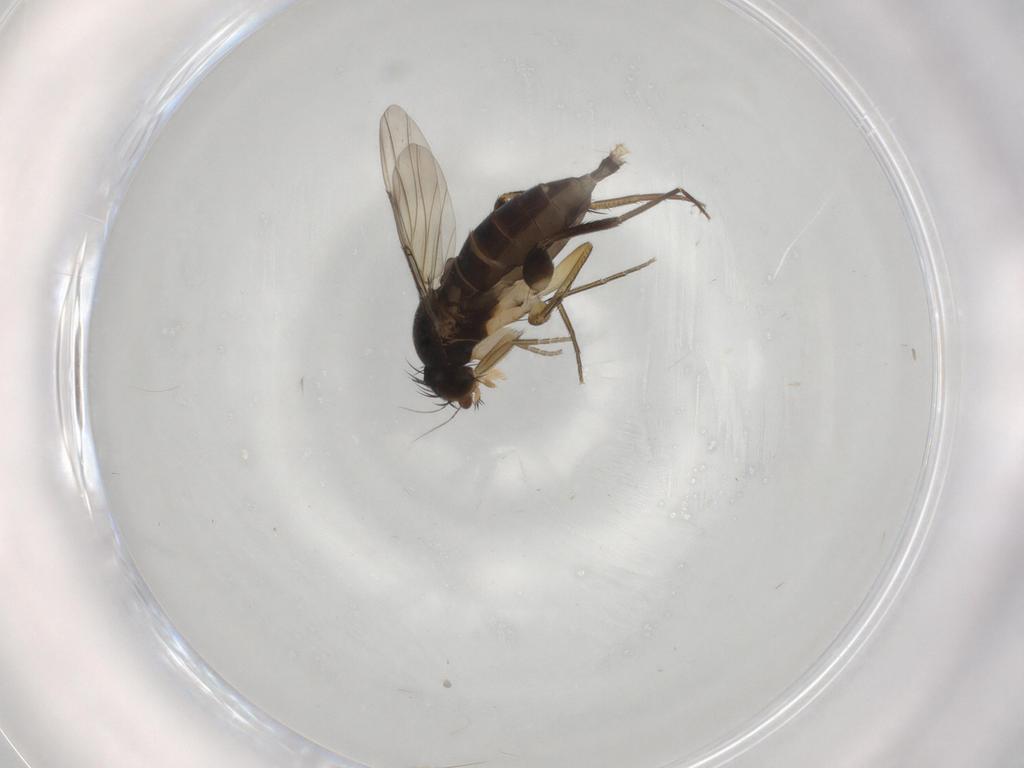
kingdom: Animalia
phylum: Arthropoda
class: Insecta
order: Diptera
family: Phoridae
